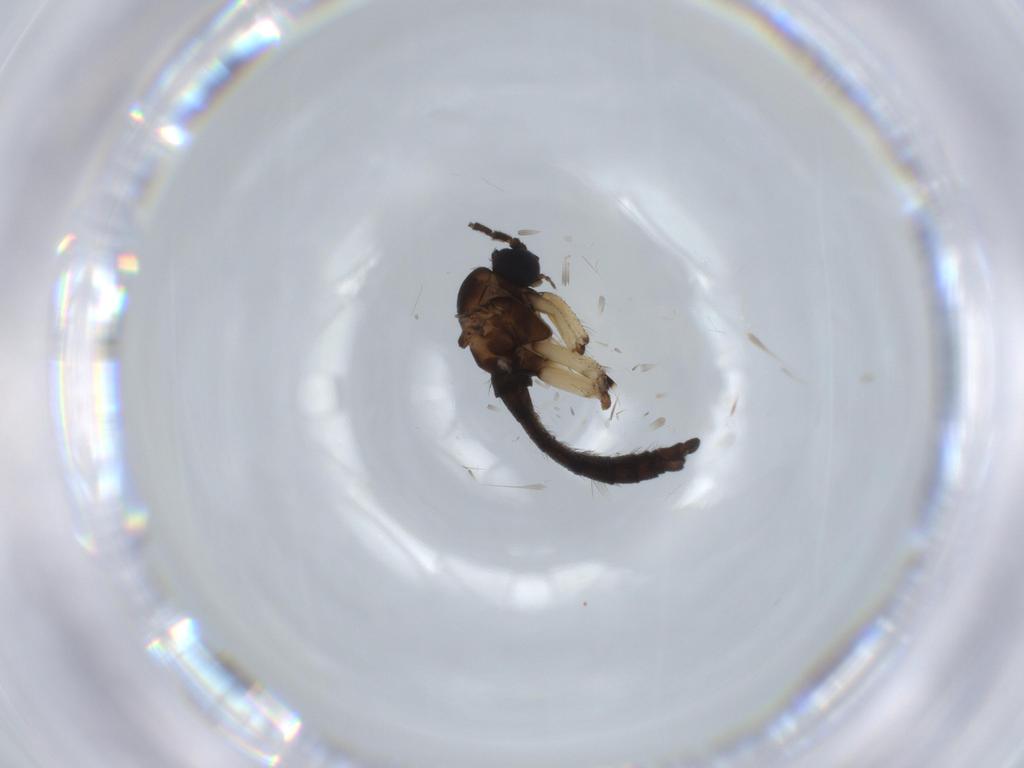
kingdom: Animalia
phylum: Arthropoda
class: Insecta
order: Diptera
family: Sciaridae
